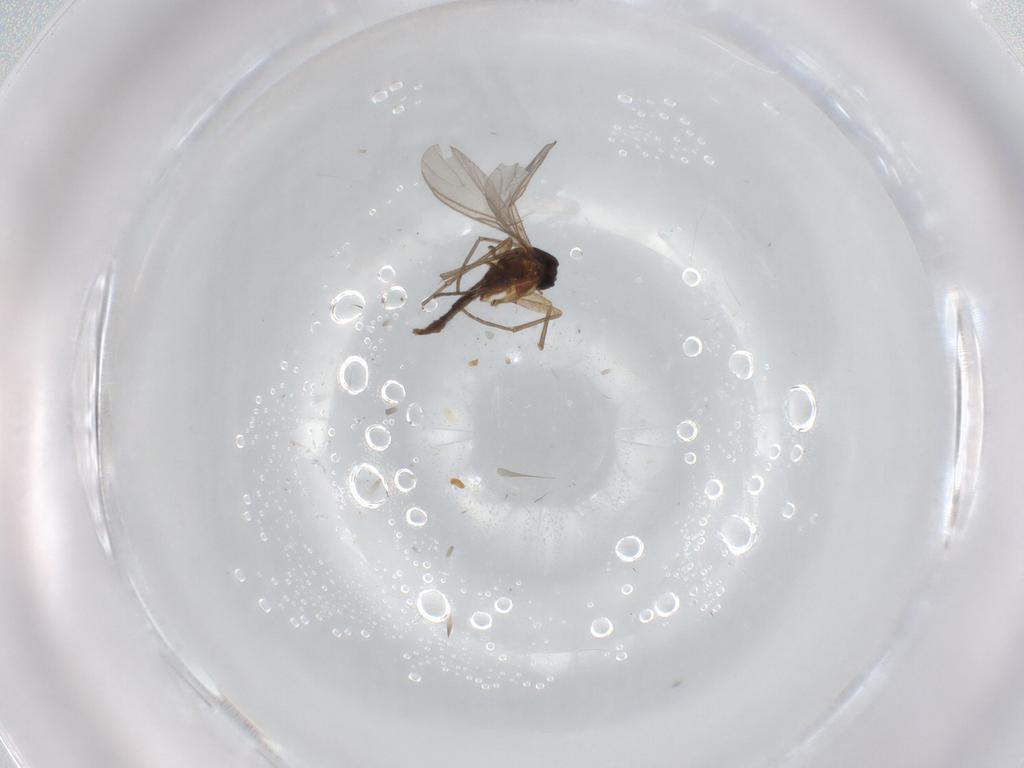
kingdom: Animalia
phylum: Arthropoda
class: Insecta
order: Diptera
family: Sciaridae
